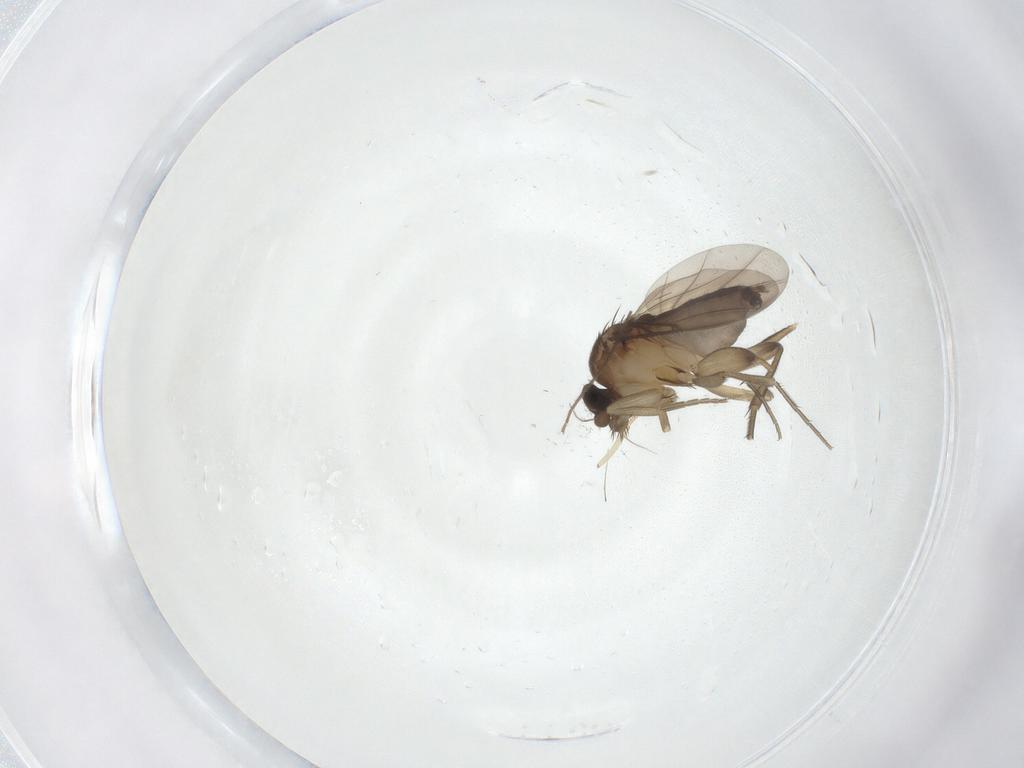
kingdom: Animalia
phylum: Arthropoda
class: Insecta
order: Diptera
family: Phoridae
